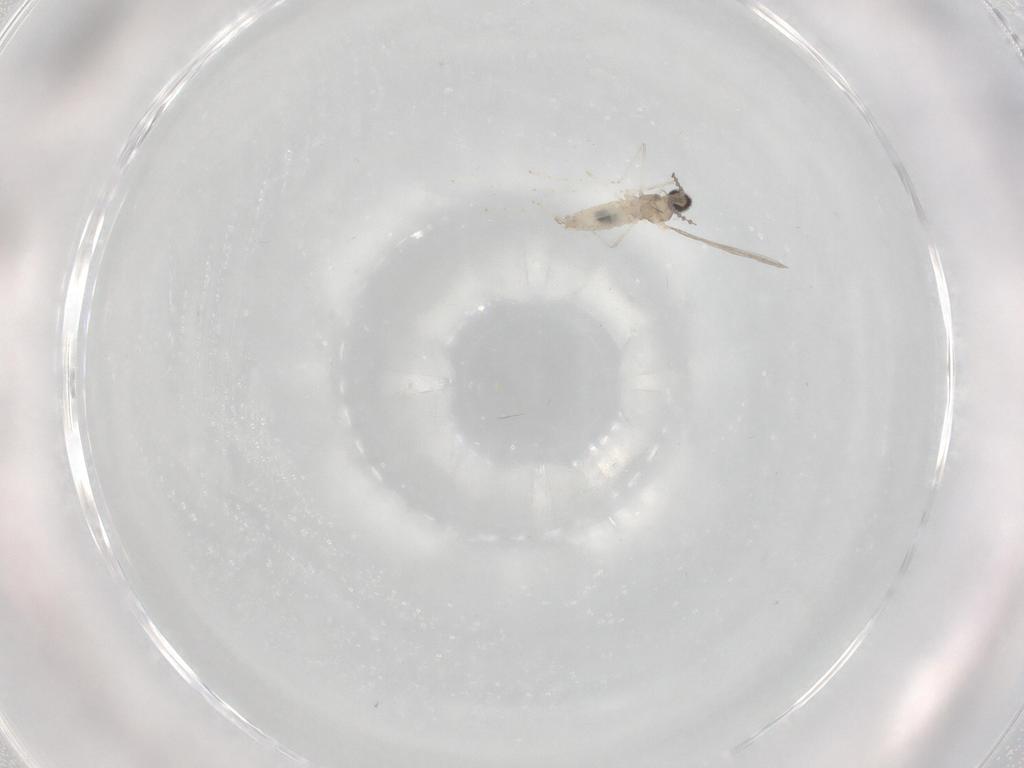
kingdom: Animalia
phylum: Arthropoda
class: Insecta
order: Diptera
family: Cecidomyiidae
